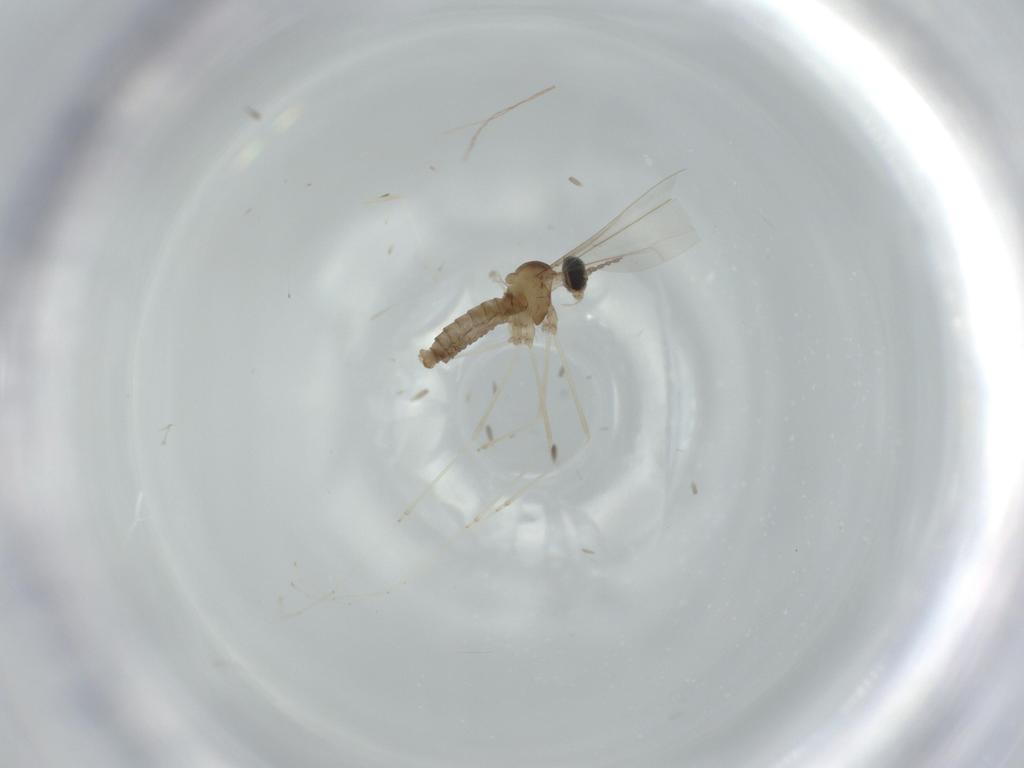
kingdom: Animalia
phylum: Arthropoda
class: Insecta
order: Diptera
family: Cecidomyiidae
